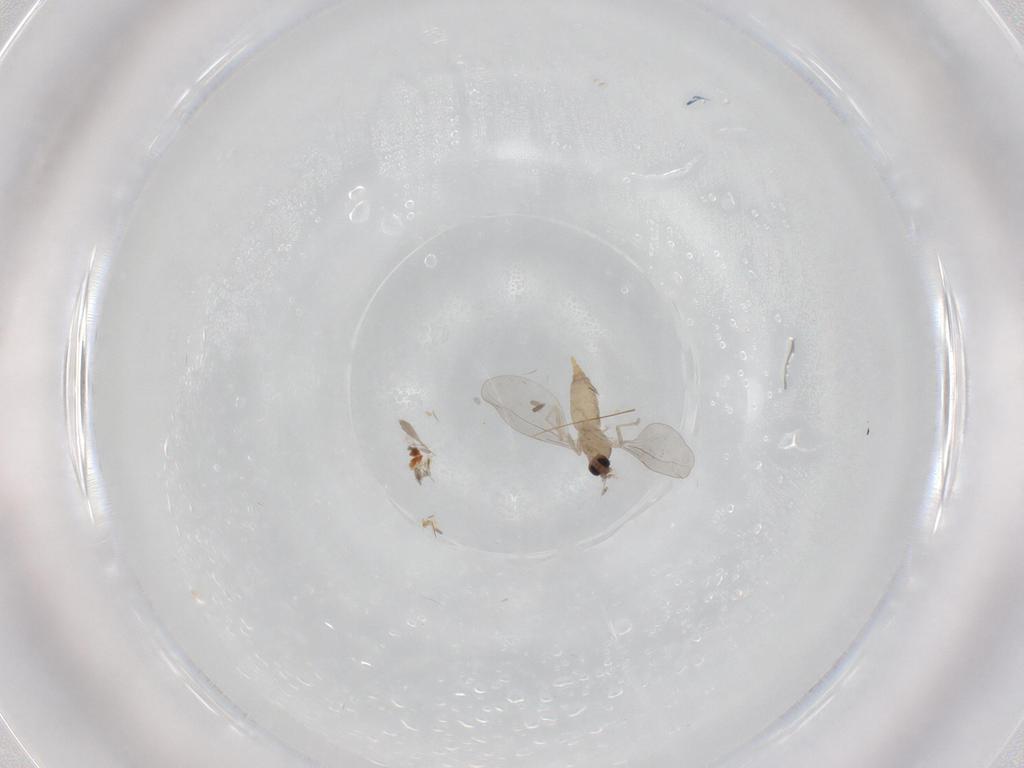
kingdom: Animalia
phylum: Arthropoda
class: Insecta
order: Diptera
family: Cecidomyiidae
